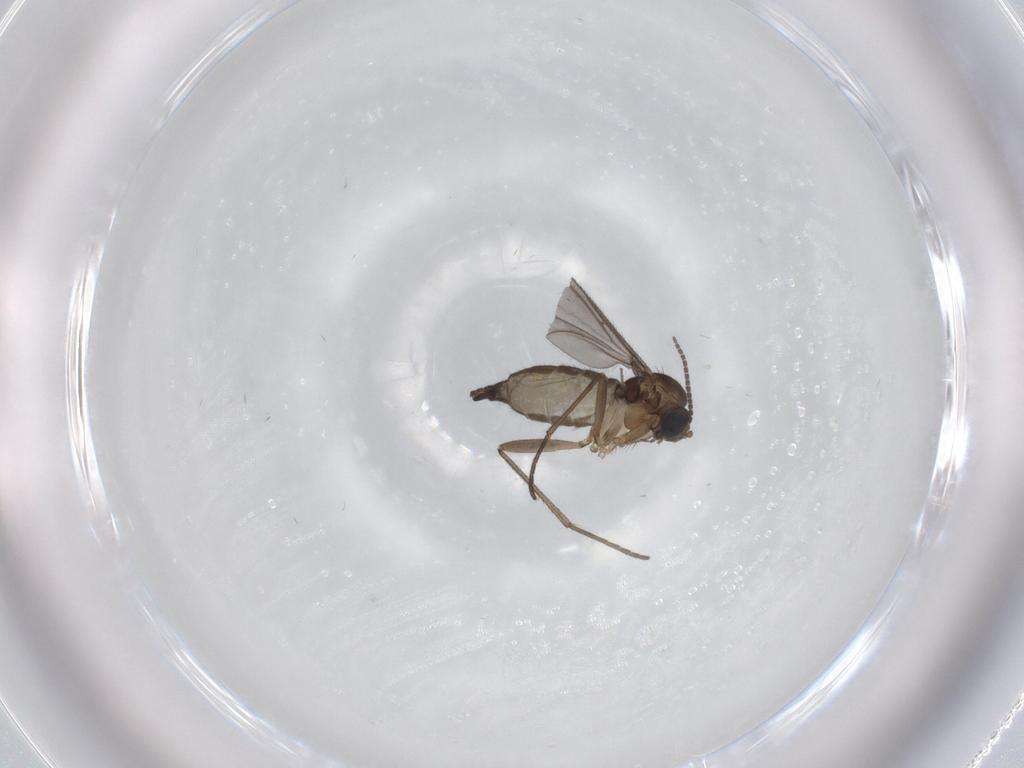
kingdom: Animalia
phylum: Arthropoda
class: Insecta
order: Diptera
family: Sciaridae
